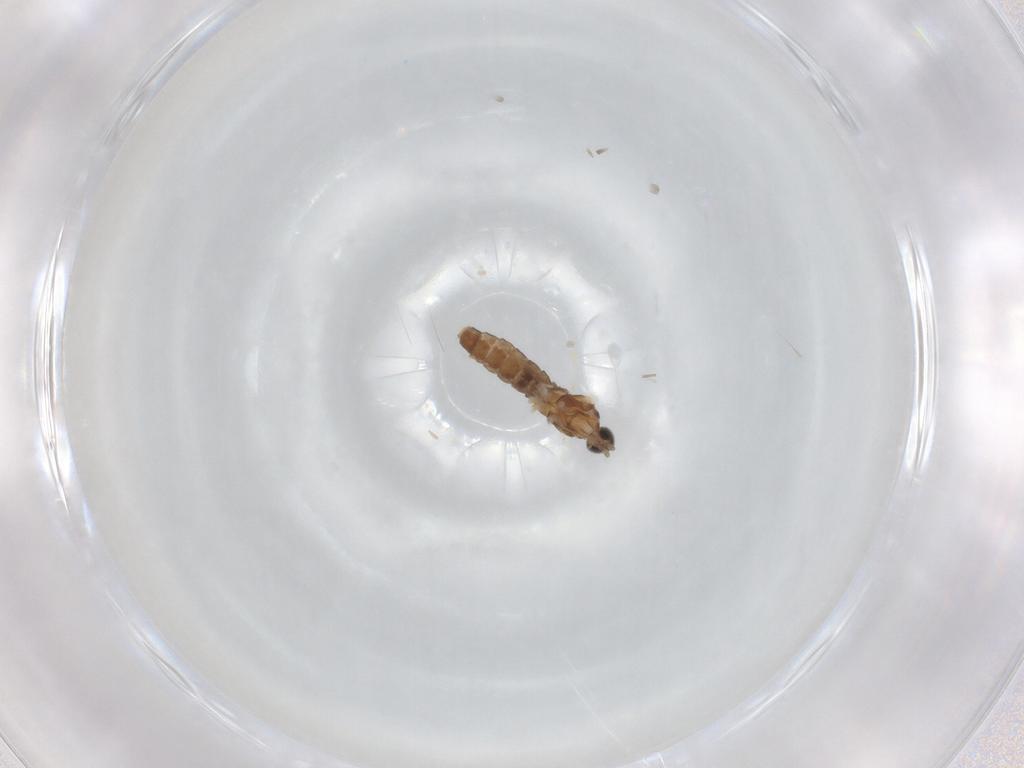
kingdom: Animalia
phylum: Arthropoda
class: Insecta
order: Diptera
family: Cecidomyiidae
